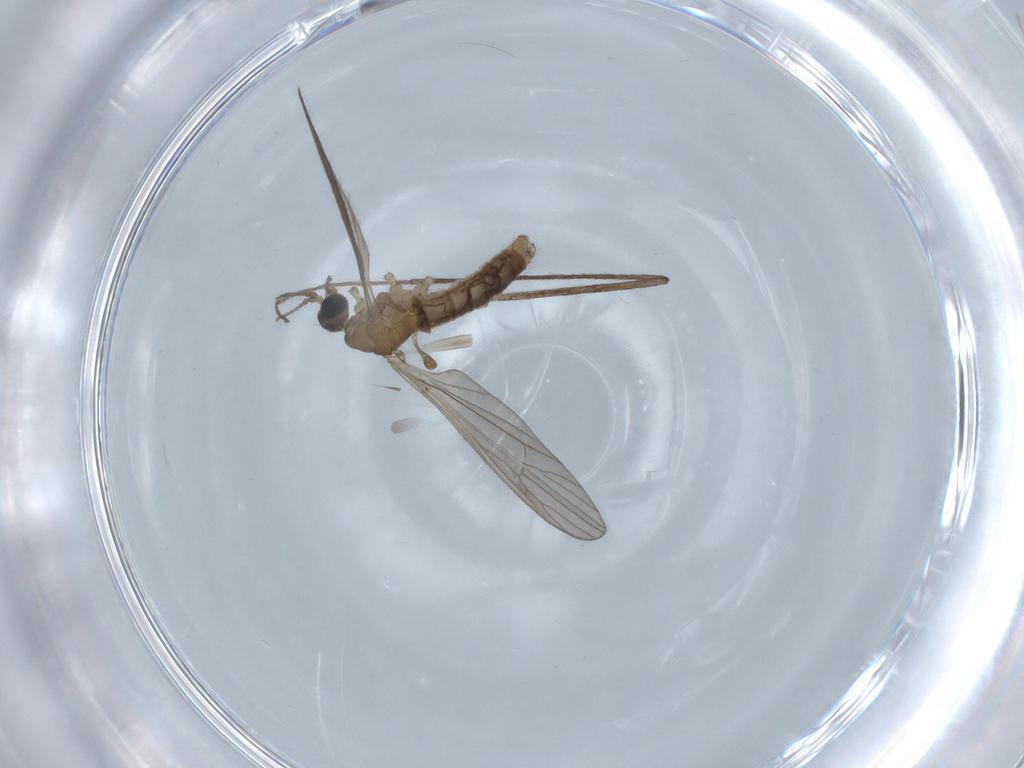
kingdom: Animalia
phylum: Arthropoda
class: Insecta
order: Diptera
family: Limoniidae
